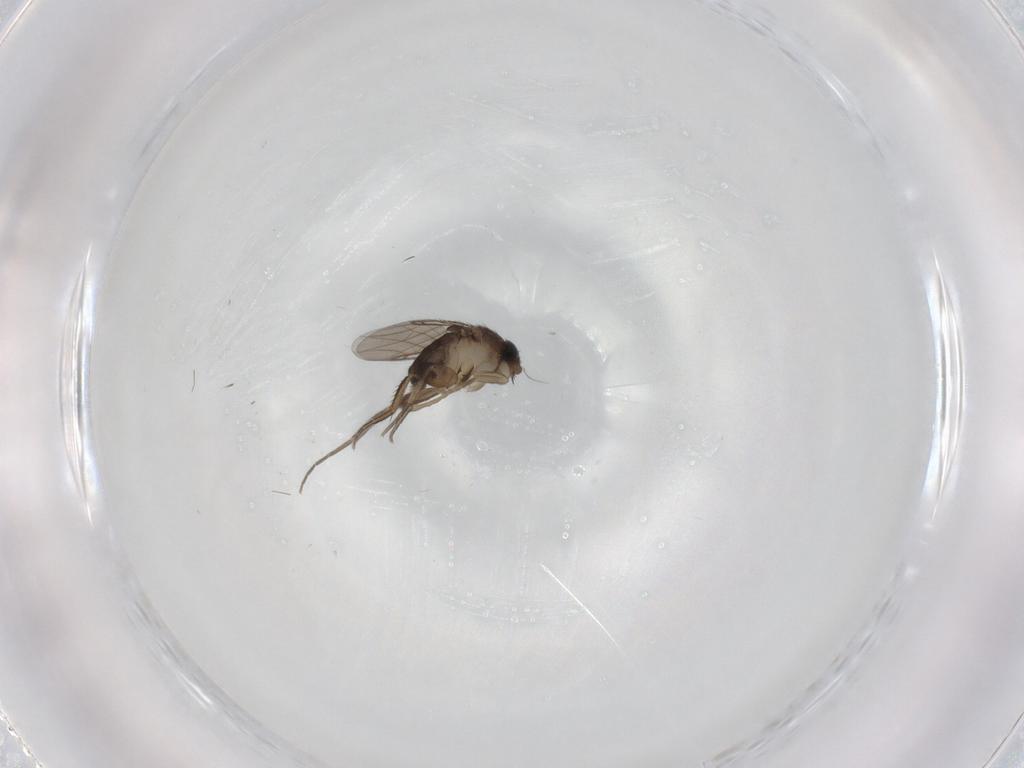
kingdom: Animalia
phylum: Arthropoda
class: Insecta
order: Diptera
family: Phoridae
